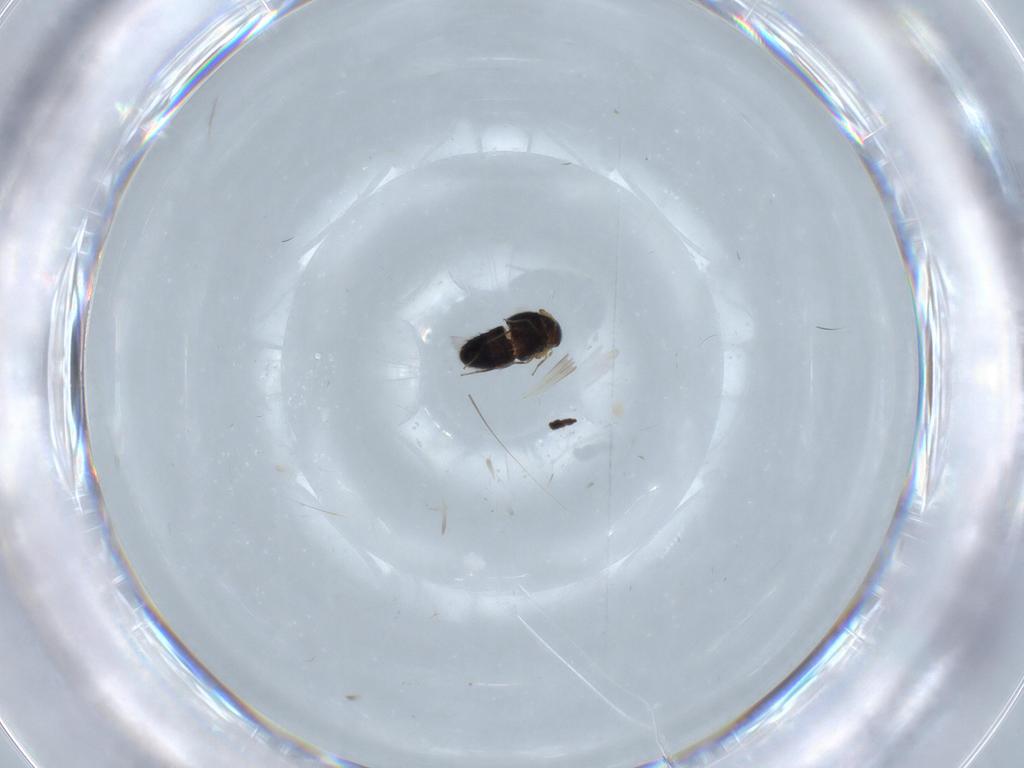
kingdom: Animalia
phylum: Arthropoda
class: Insecta
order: Coleoptera
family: Staphylinidae
